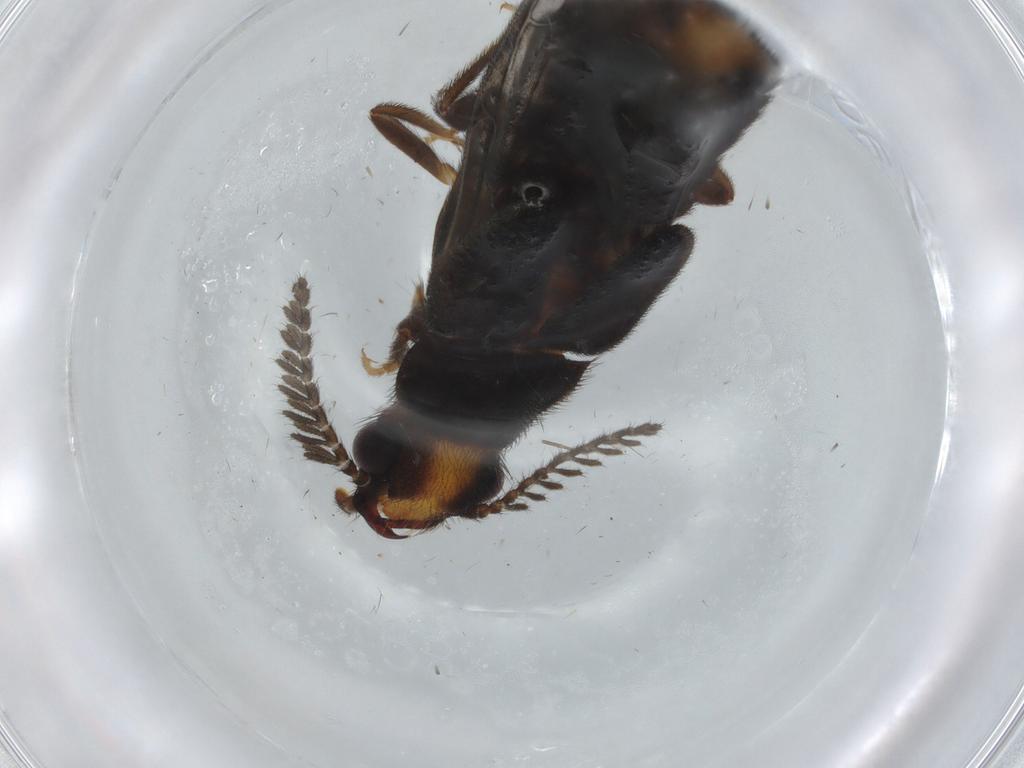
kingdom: Animalia
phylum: Arthropoda
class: Insecta
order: Coleoptera
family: Phengodidae
